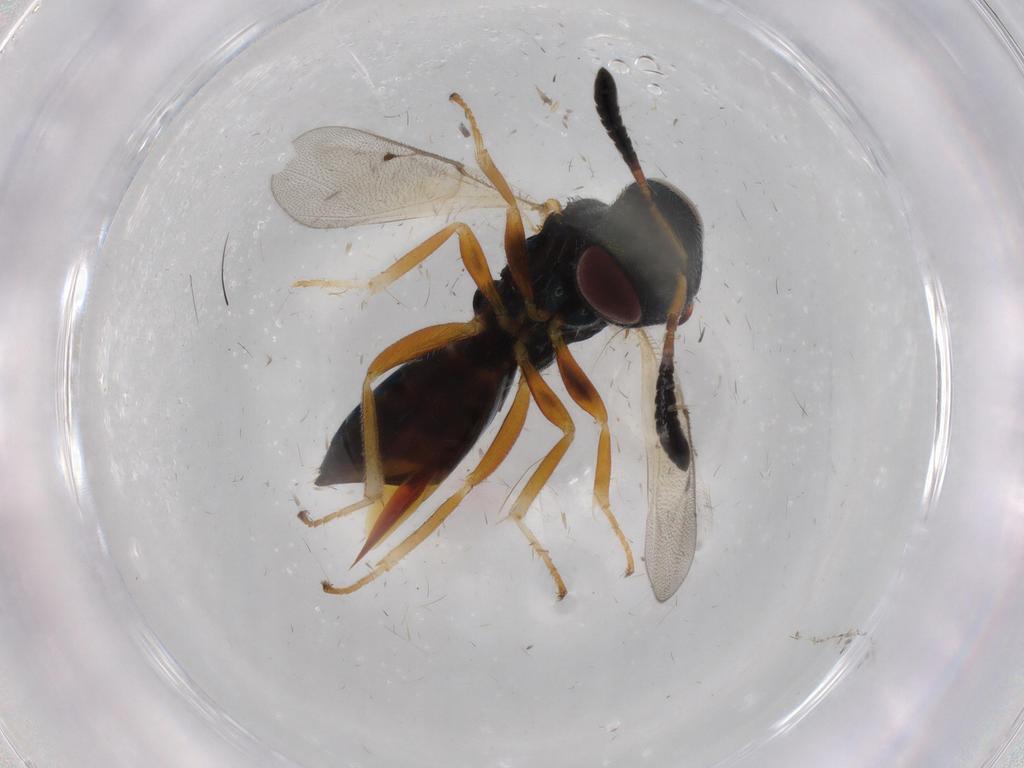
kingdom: Animalia
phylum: Arthropoda
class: Insecta
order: Hymenoptera
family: Agaonidae
